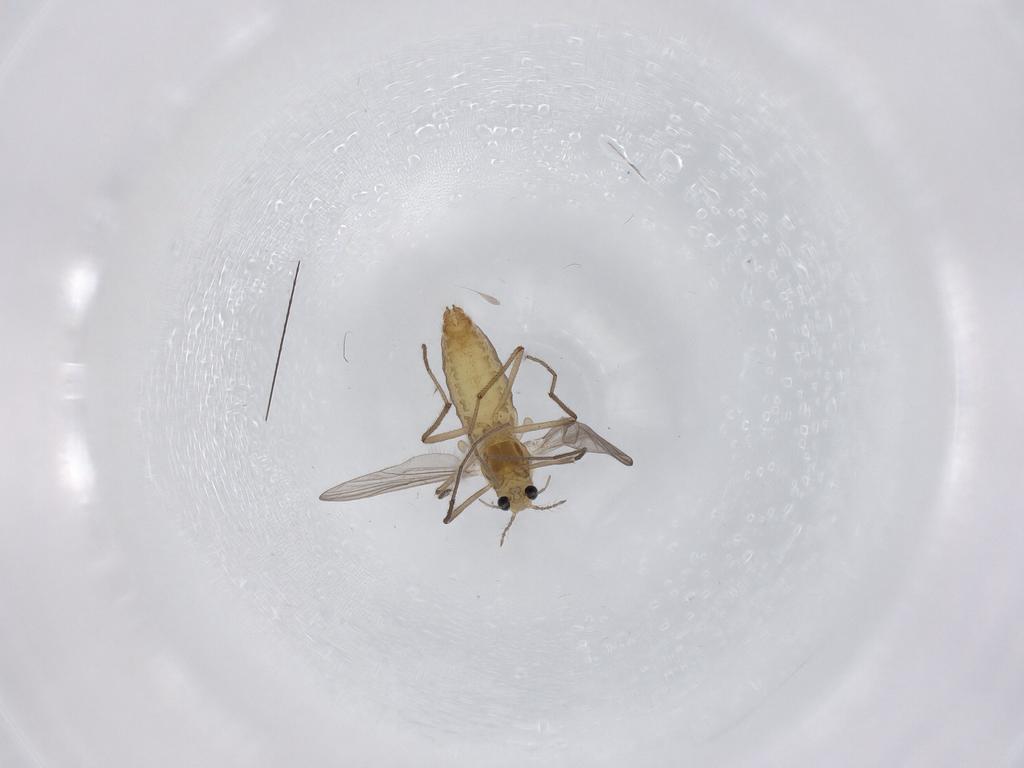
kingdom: Animalia
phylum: Arthropoda
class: Insecta
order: Diptera
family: Chironomidae
